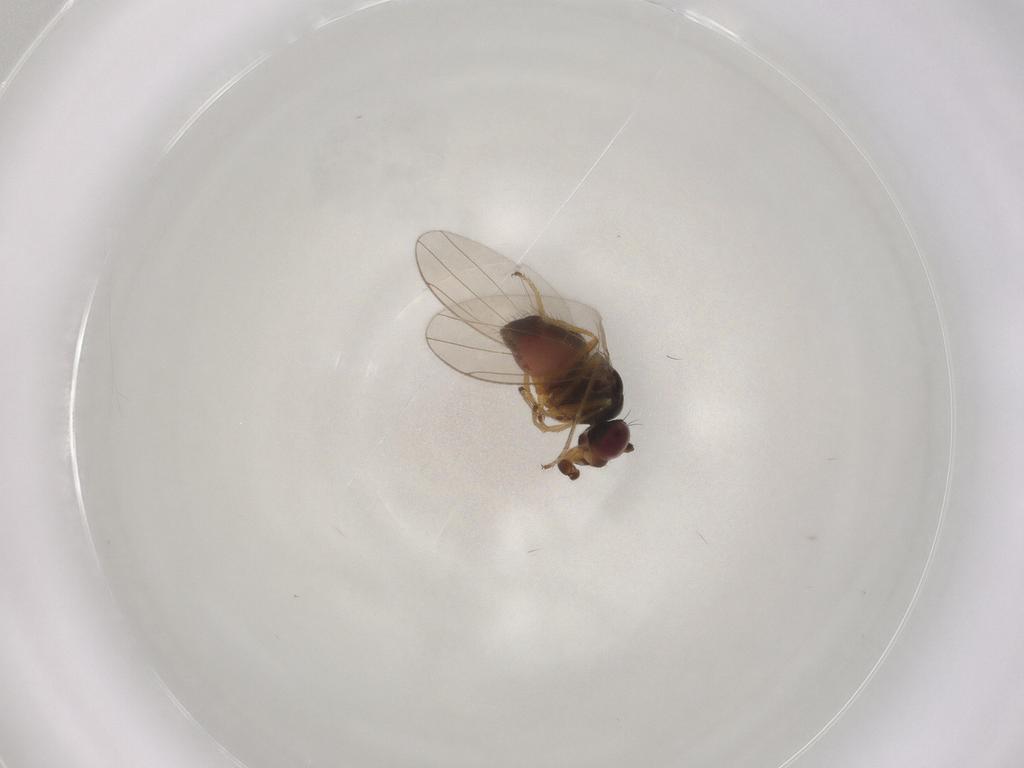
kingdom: Animalia
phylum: Arthropoda
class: Insecta
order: Diptera
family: Ephydridae
